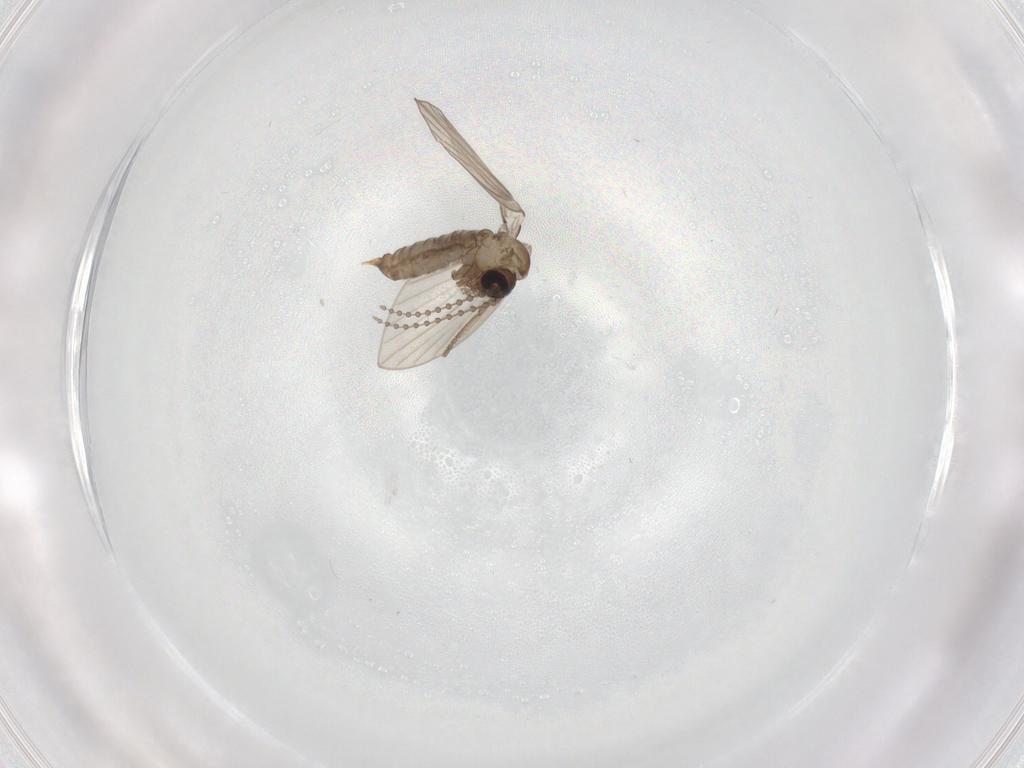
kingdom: Animalia
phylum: Arthropoda
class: Insecta
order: Diptera
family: Psychodidae
